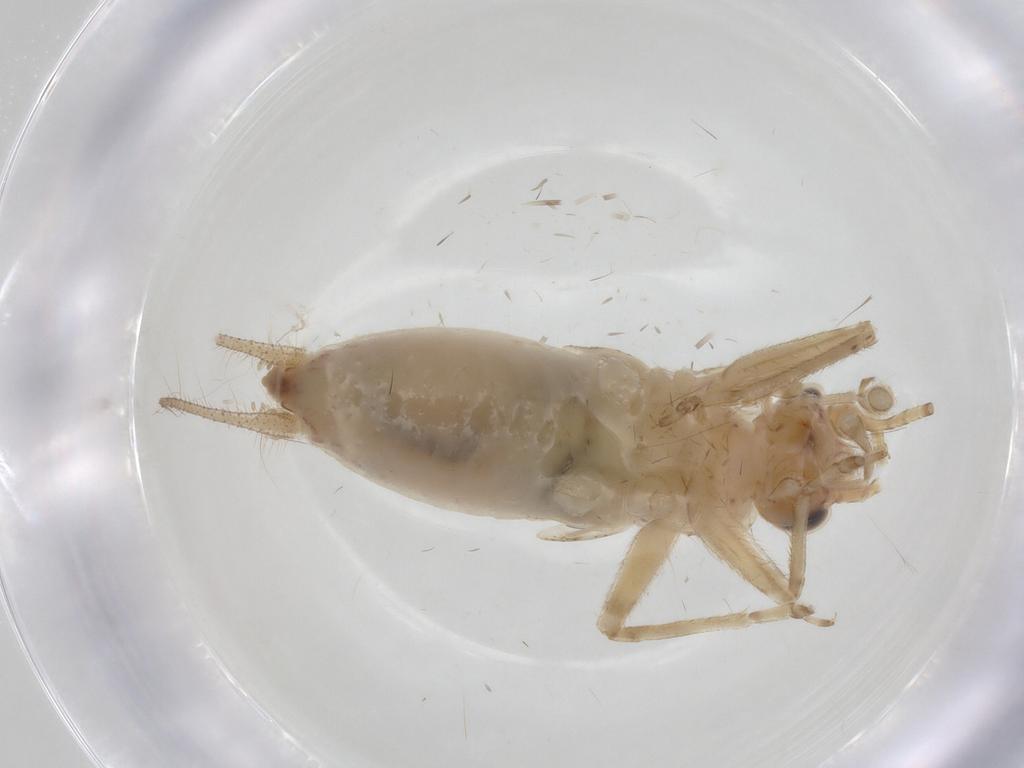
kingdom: Animalia
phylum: Arthropoda
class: Insecta
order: Orthoptera
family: Trigonidiidae
